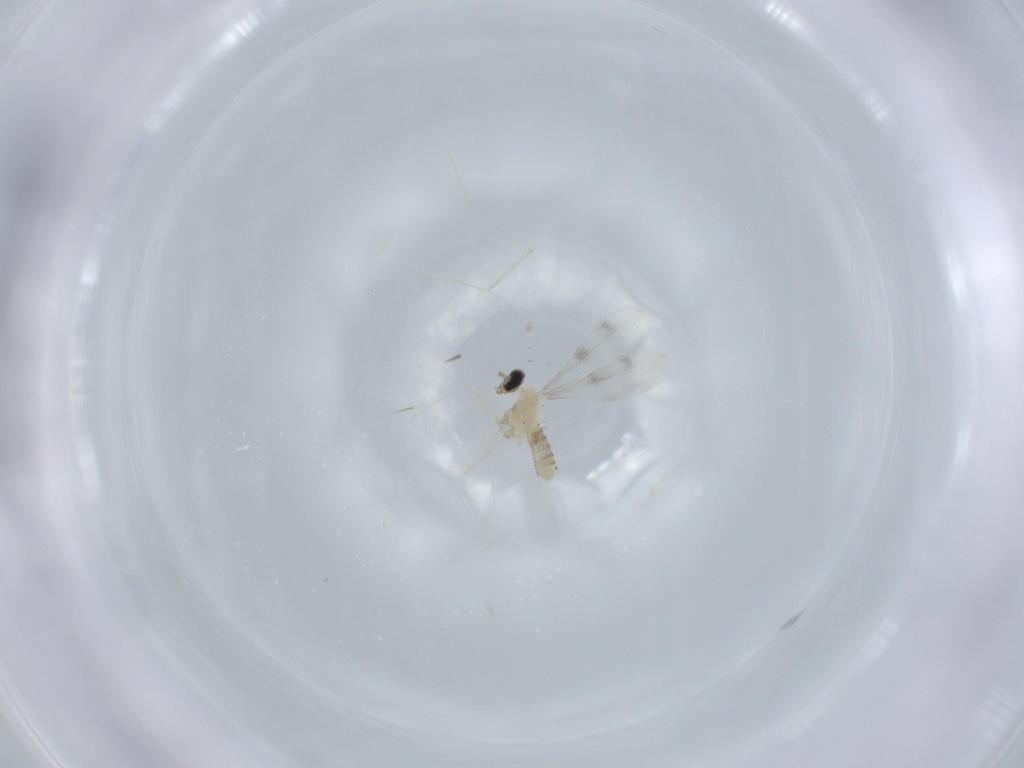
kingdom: Animalia
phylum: Arthropoda
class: Insecta
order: Diptera
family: Cecidomyiidae
